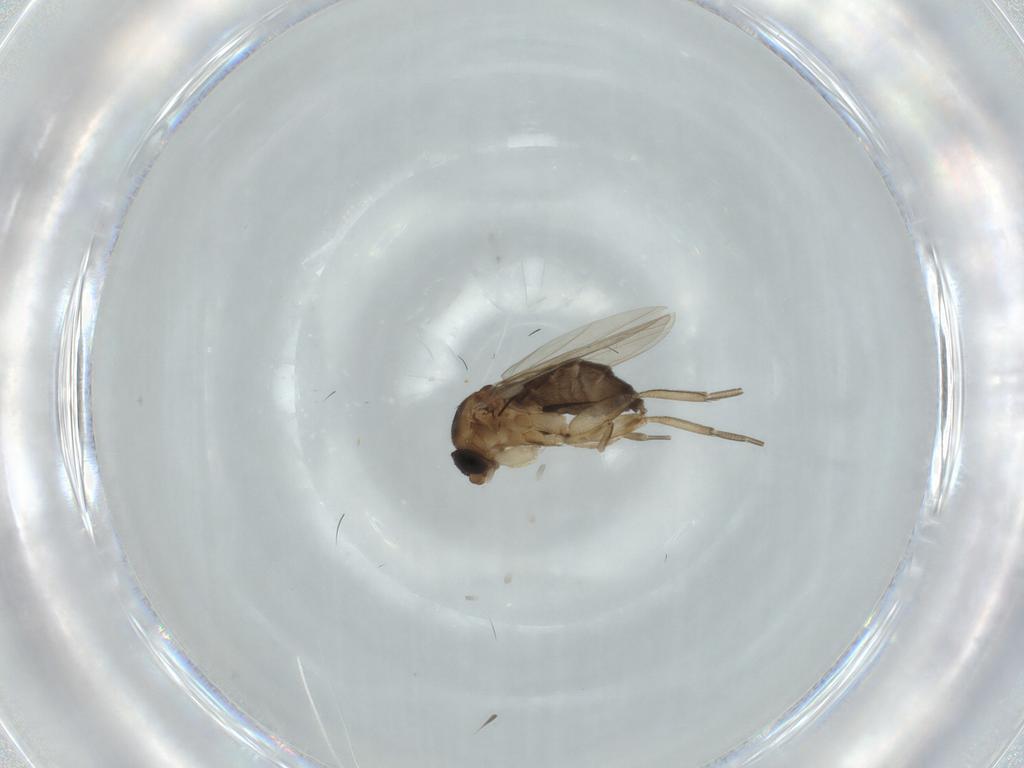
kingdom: Animalia
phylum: Arthropoda
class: Insecta
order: Diptera
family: Phoridae
